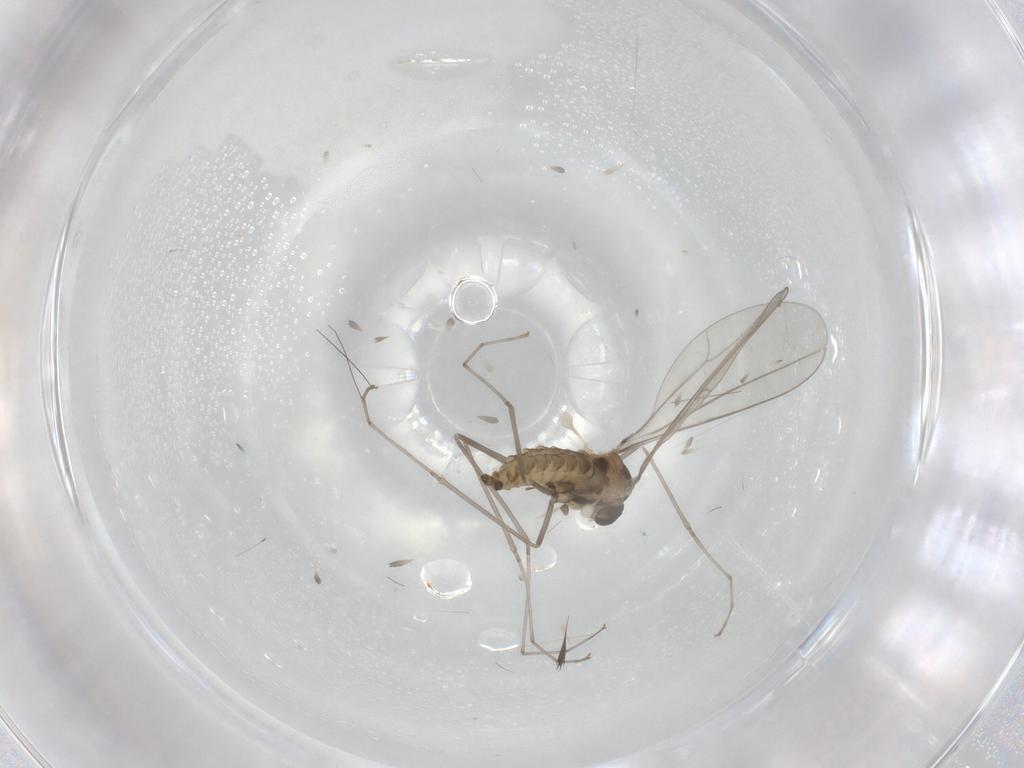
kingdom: Animalia
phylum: Arthropoda
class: Insecta
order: Diptera
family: Cecidomyiidae
